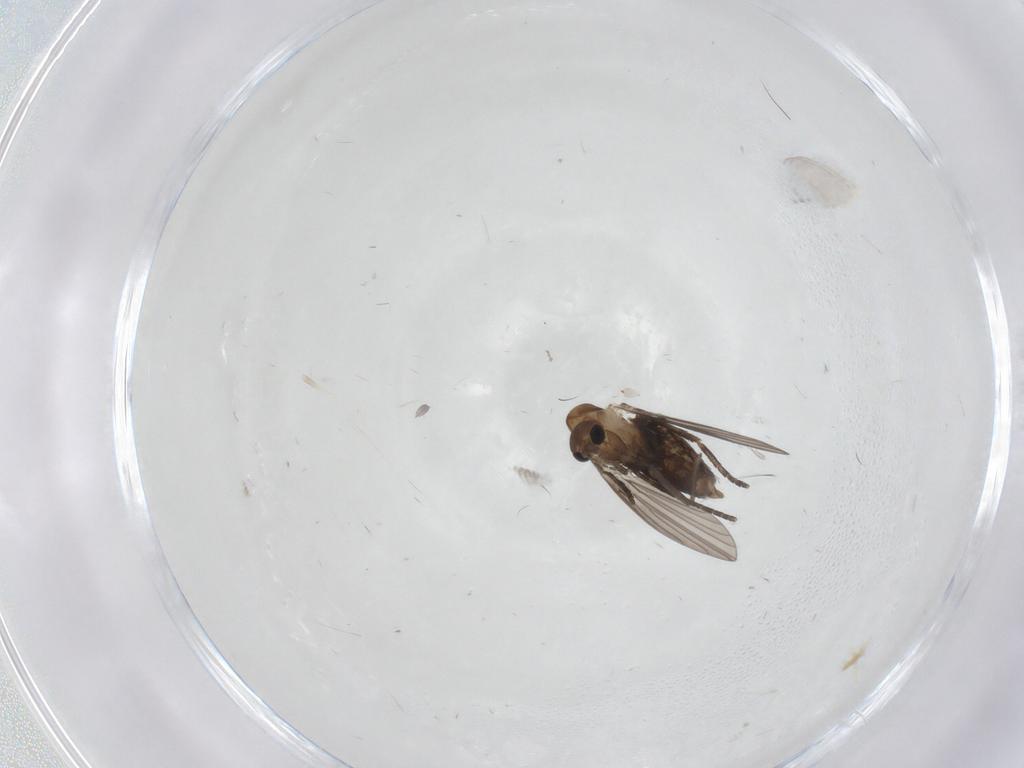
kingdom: Animalia
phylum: Arthropoda
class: Insecta
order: Diptera
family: Psychodidae
